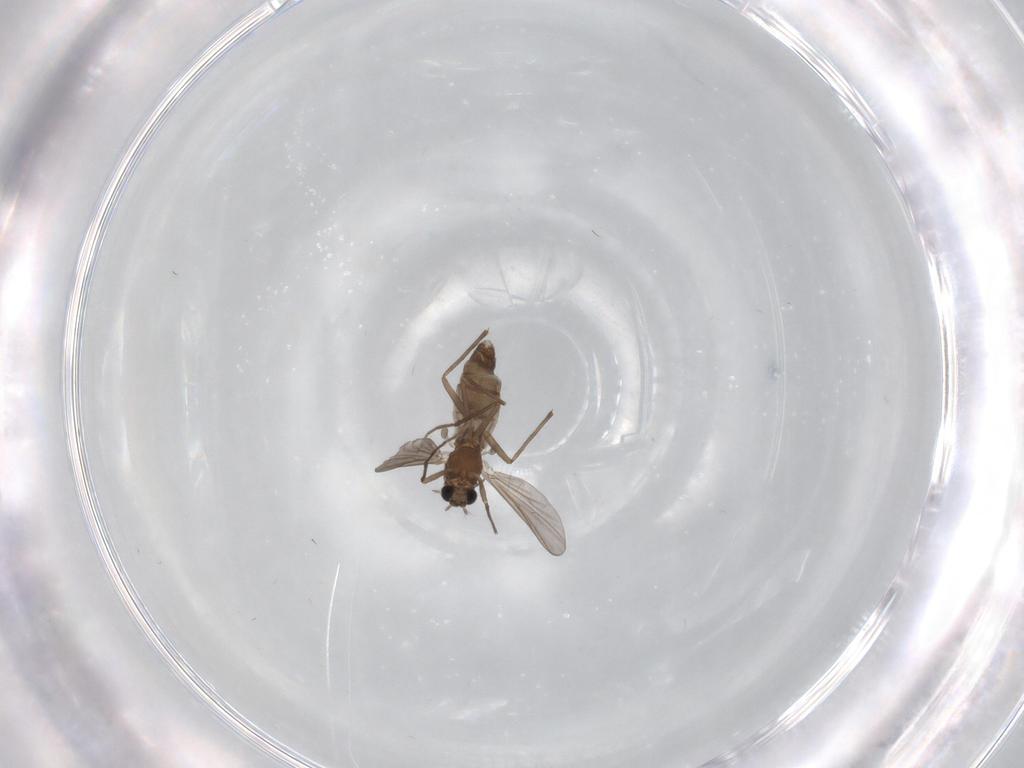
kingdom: Animalia
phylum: Arthropoda
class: Insecta
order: Diptera
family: Chironomidae
